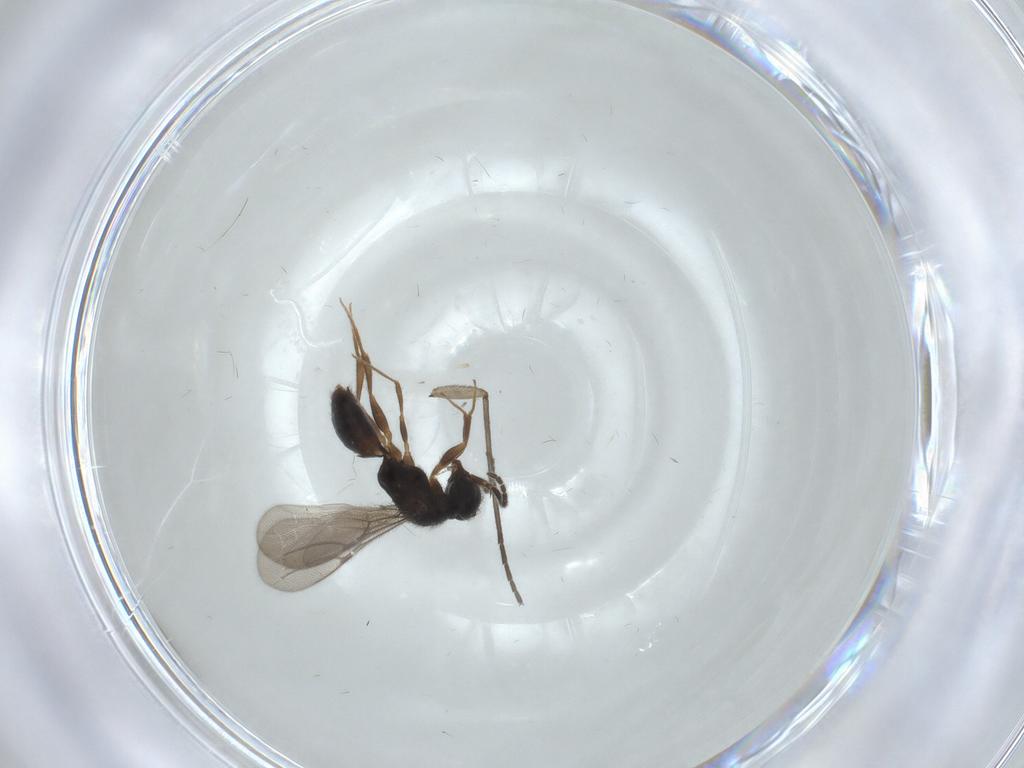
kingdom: Animalia
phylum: Arthropoda
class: Insecta
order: Hymenoptera
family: Bethylidae
